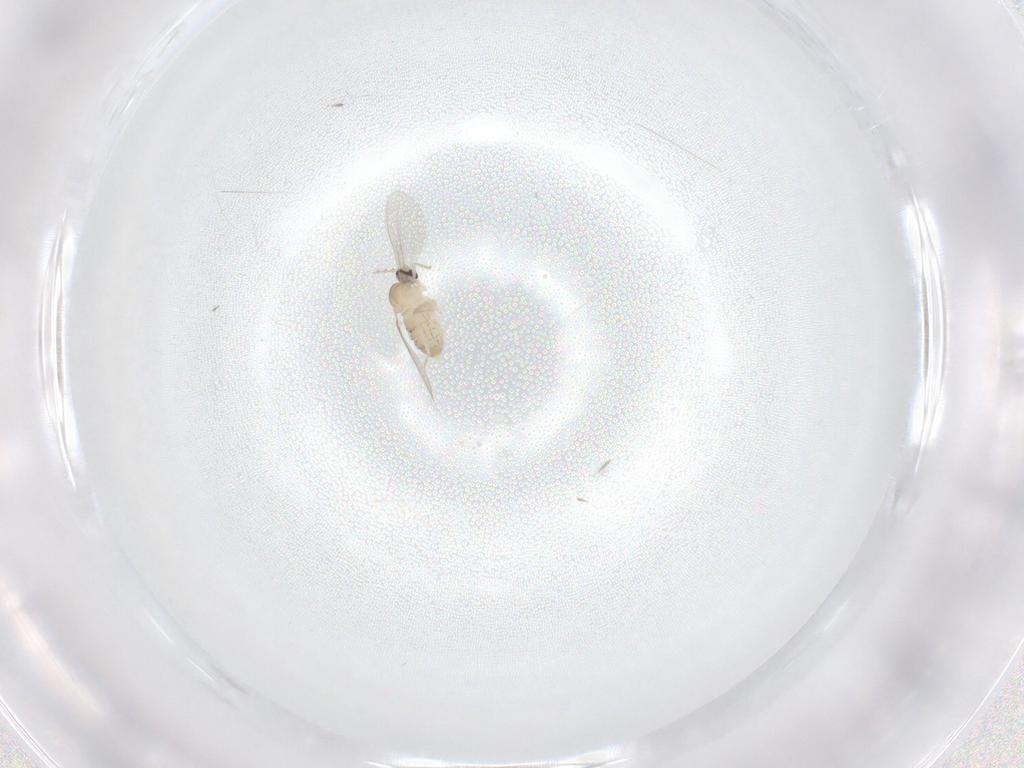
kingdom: Animalia
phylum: Arthropoda
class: Insecta
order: Diptera
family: Cecidomyiidae
